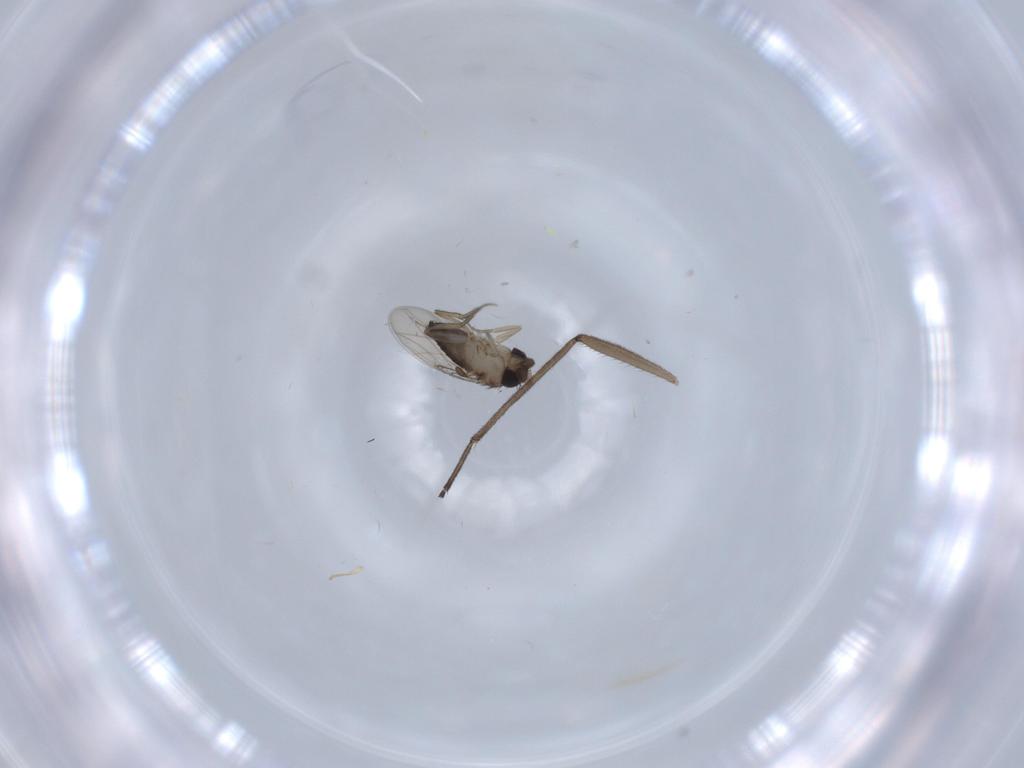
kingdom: Animalia
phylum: Arthropoda
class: Insecta
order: Diptera
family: Phoridae
